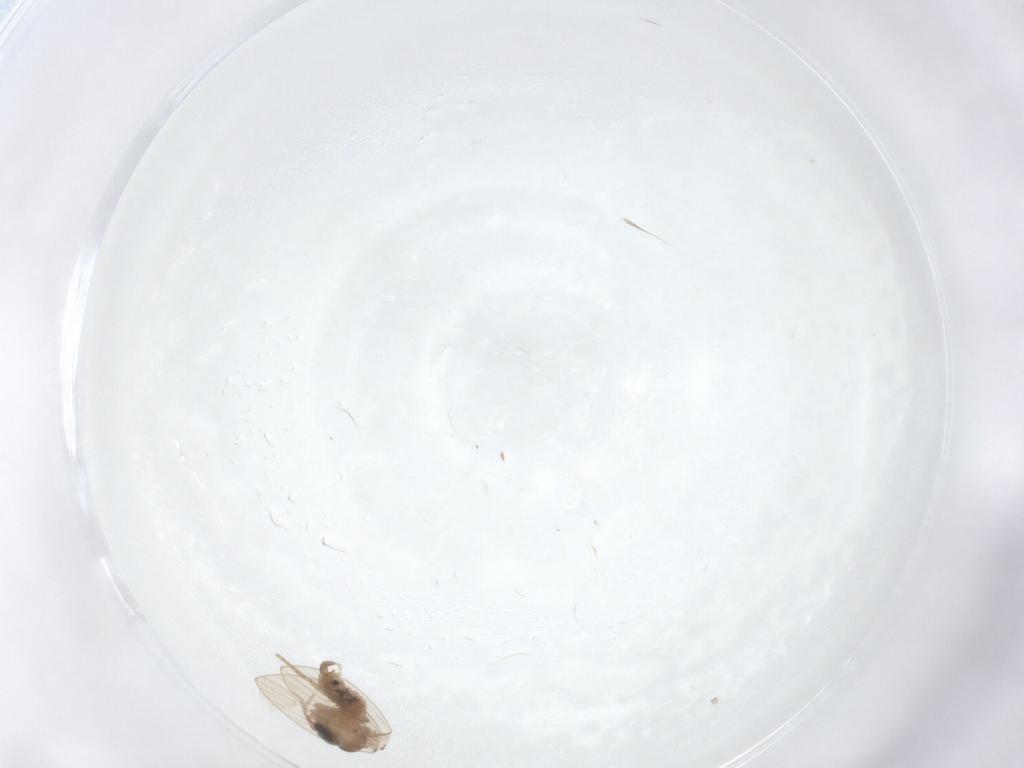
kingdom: Animalia
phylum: Arthropoda
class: Insecta
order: Diptera
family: Psychodidae
